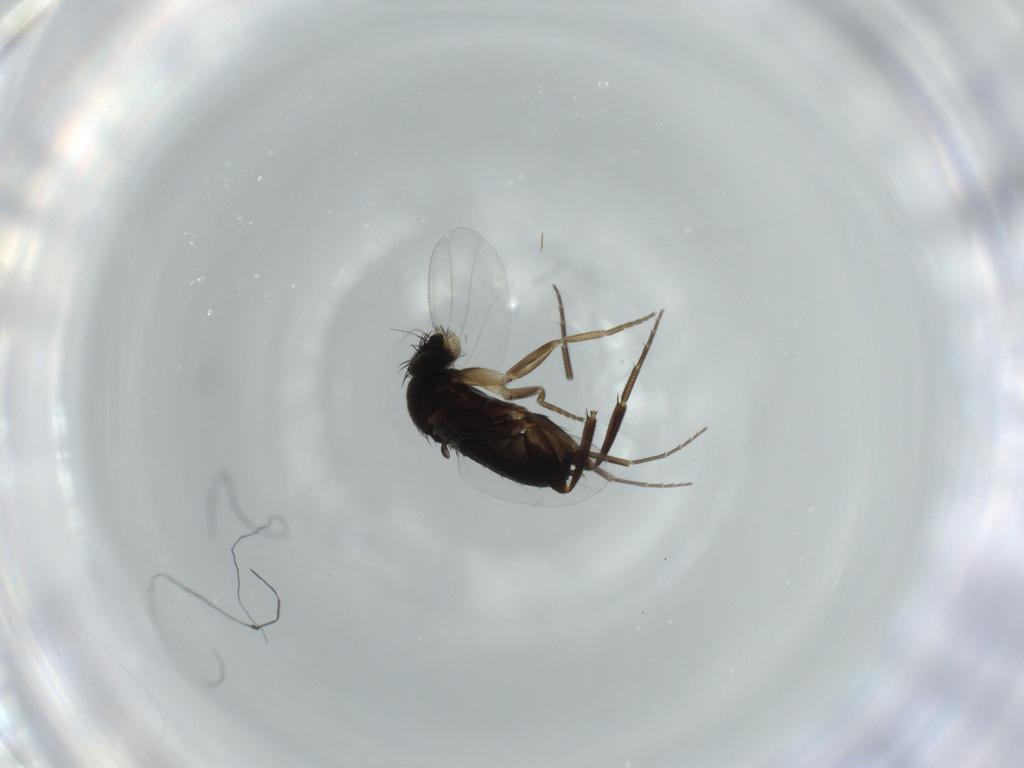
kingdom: Animalia
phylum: Arthropoda
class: Insecta
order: Diptera
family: Phoridae
